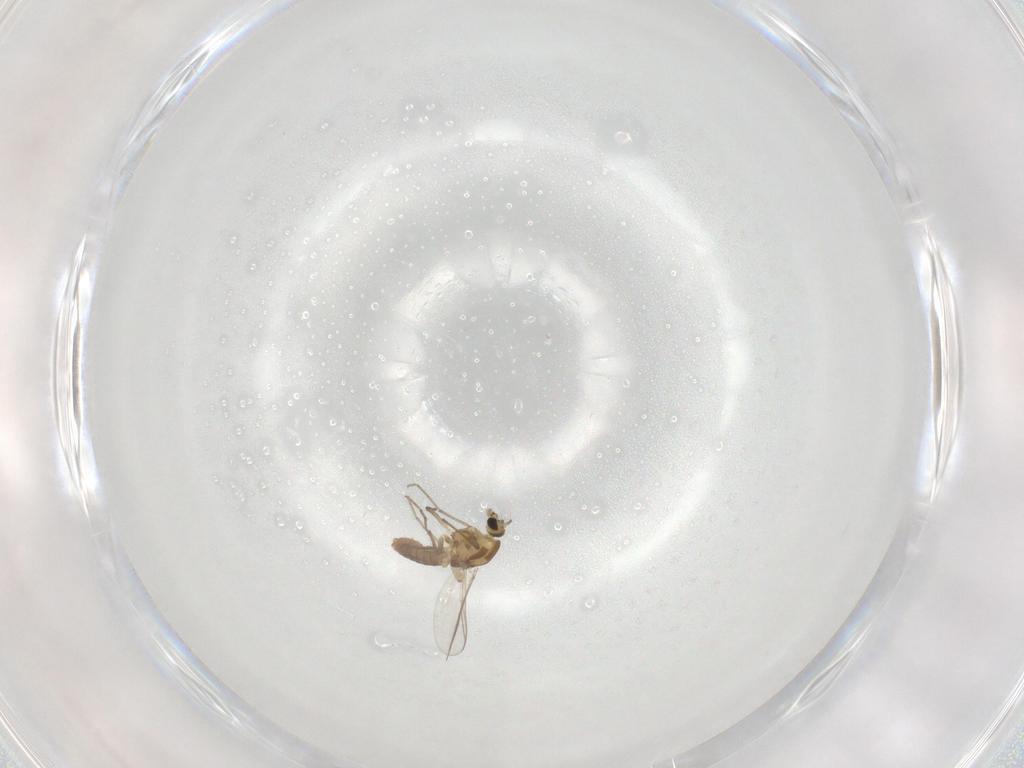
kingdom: Animalia
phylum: Arthropoda
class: Insecta
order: Diptera
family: Chironomidae
